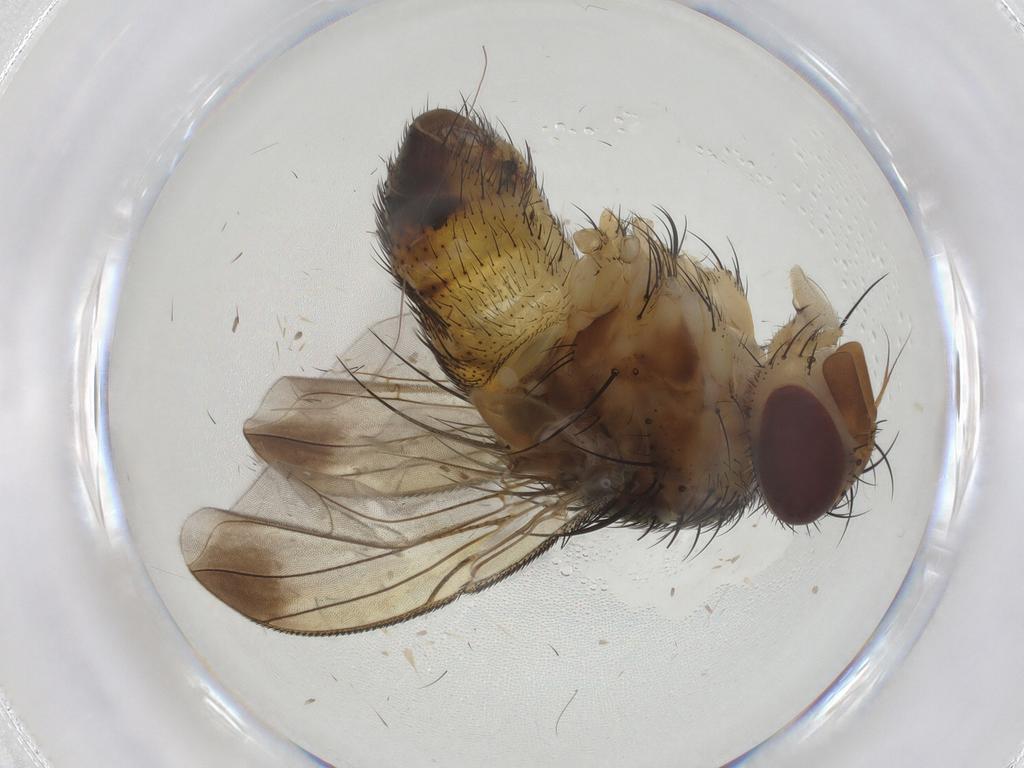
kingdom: Animalia
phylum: Arthropoda
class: Insecta
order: Diptera
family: Tachinidae
